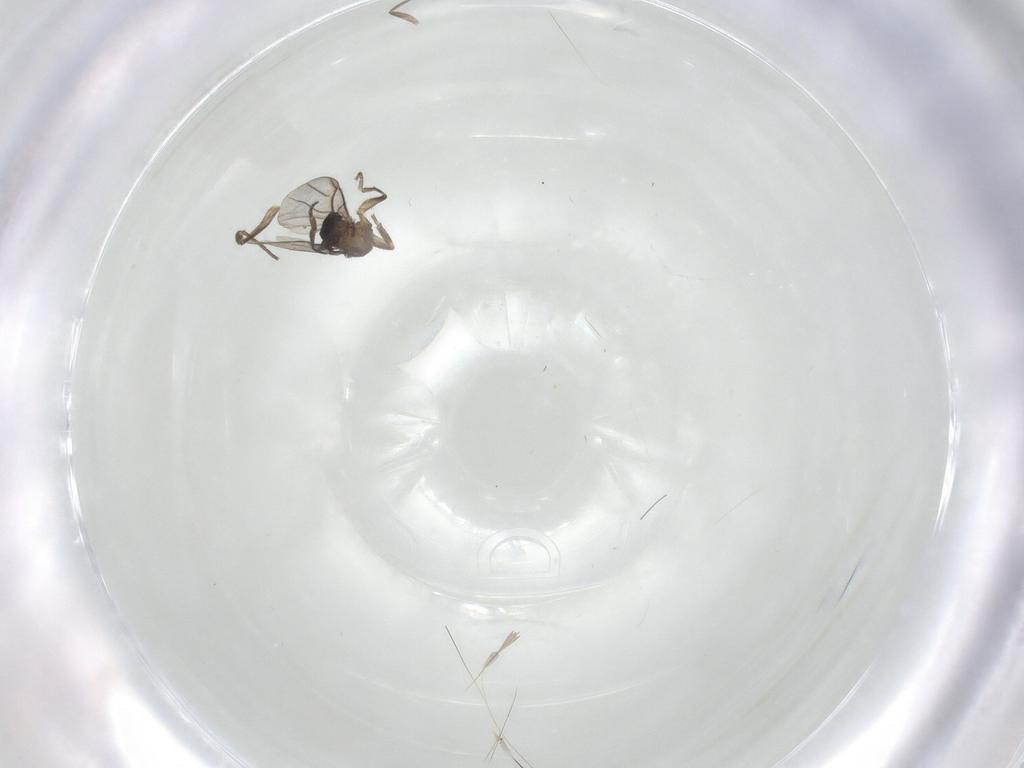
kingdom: Animalia
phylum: Arthropoda
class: Insecta
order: Diptera
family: Phoridae
